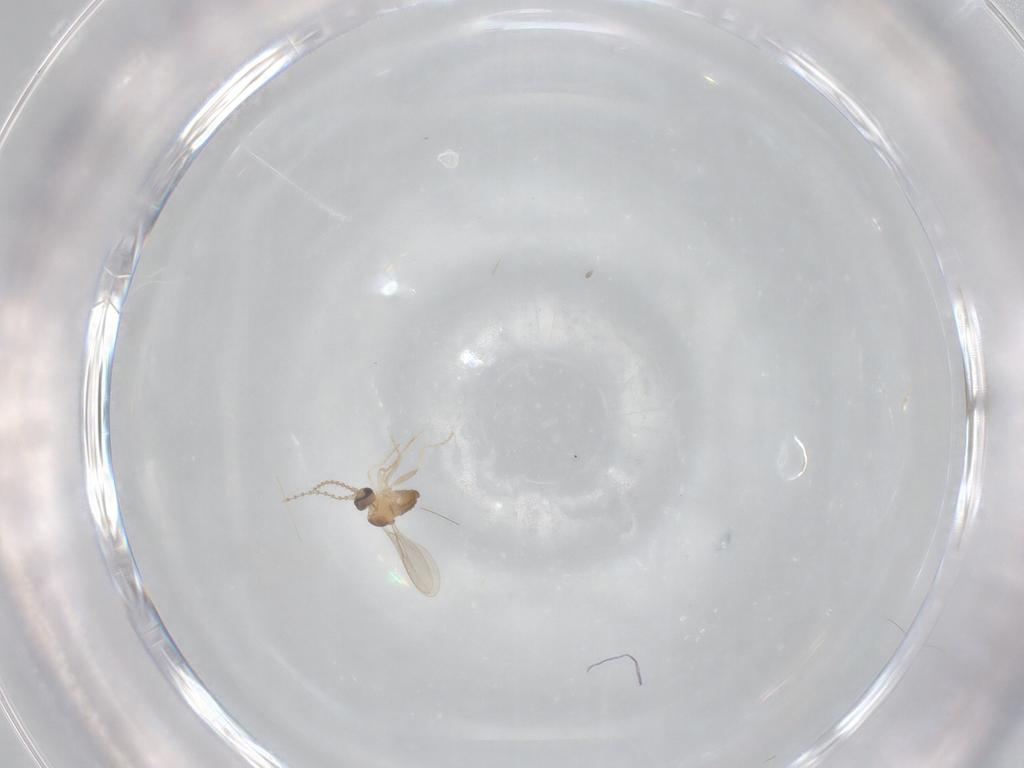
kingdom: Animalia
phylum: Arthropoda
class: Insecta
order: Diptera
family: Cecidomyiidae
